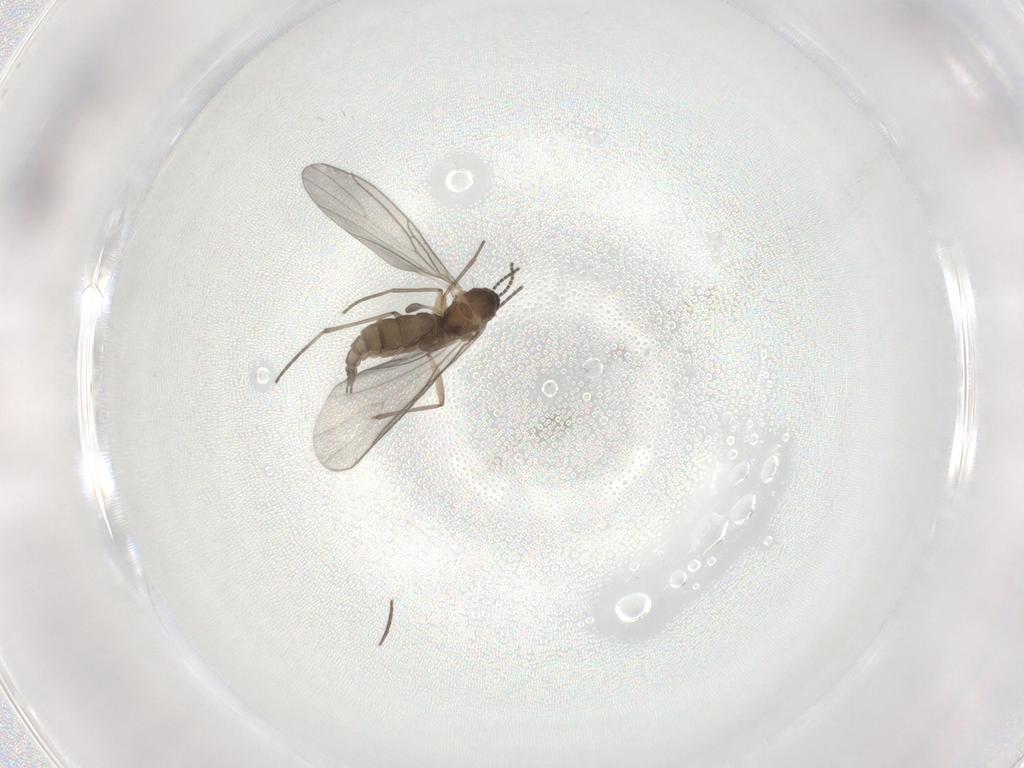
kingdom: Animalia
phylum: Arthropoda
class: Insecta
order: Diptera
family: Sciaridae
